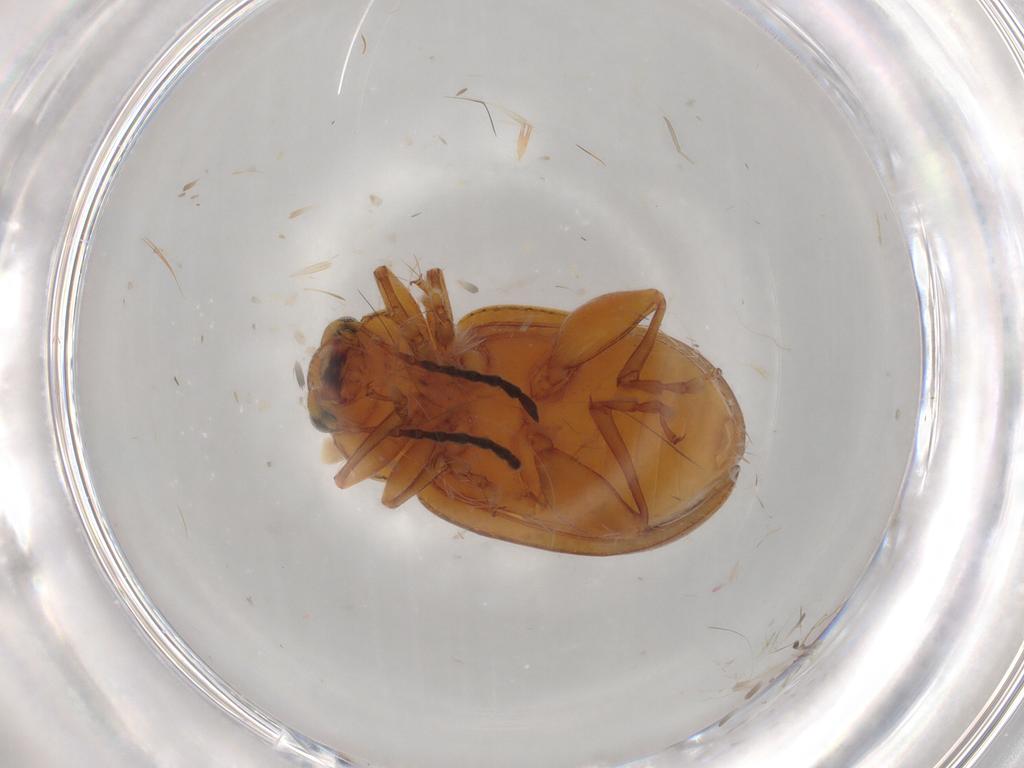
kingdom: Animalia
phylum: Arthropoda
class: Insecta
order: Coleoptera
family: Chrysomelidae
